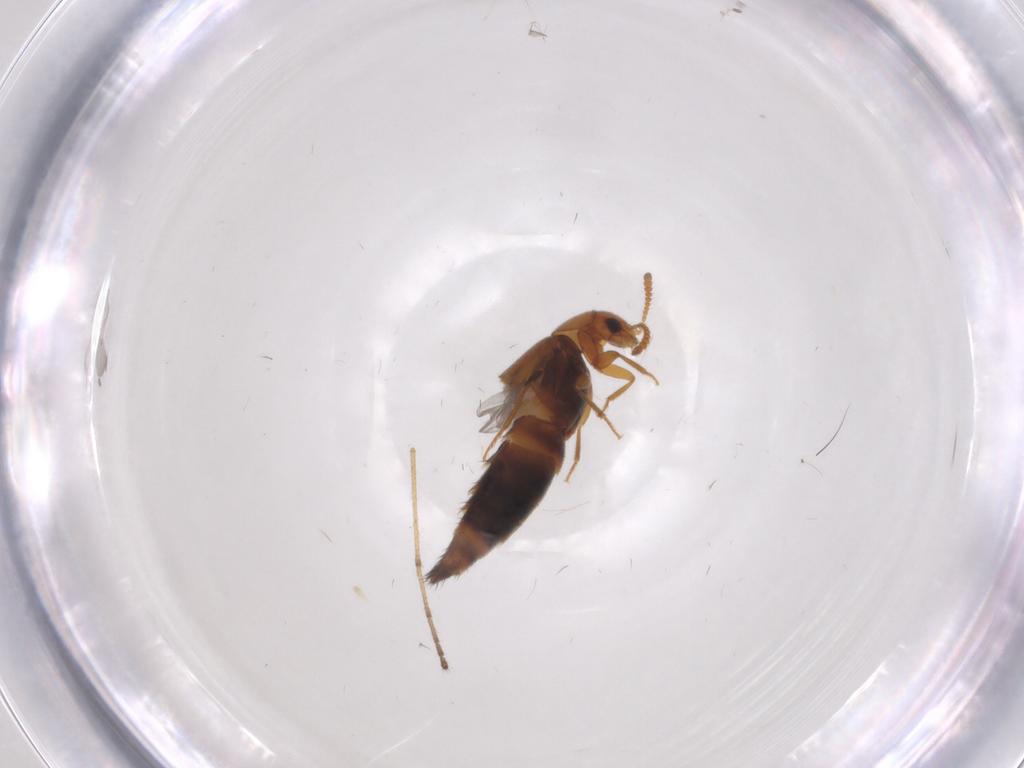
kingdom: Animalia
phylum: Arthropoda
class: Insecta
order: Coleoptera
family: Staphylinidae
